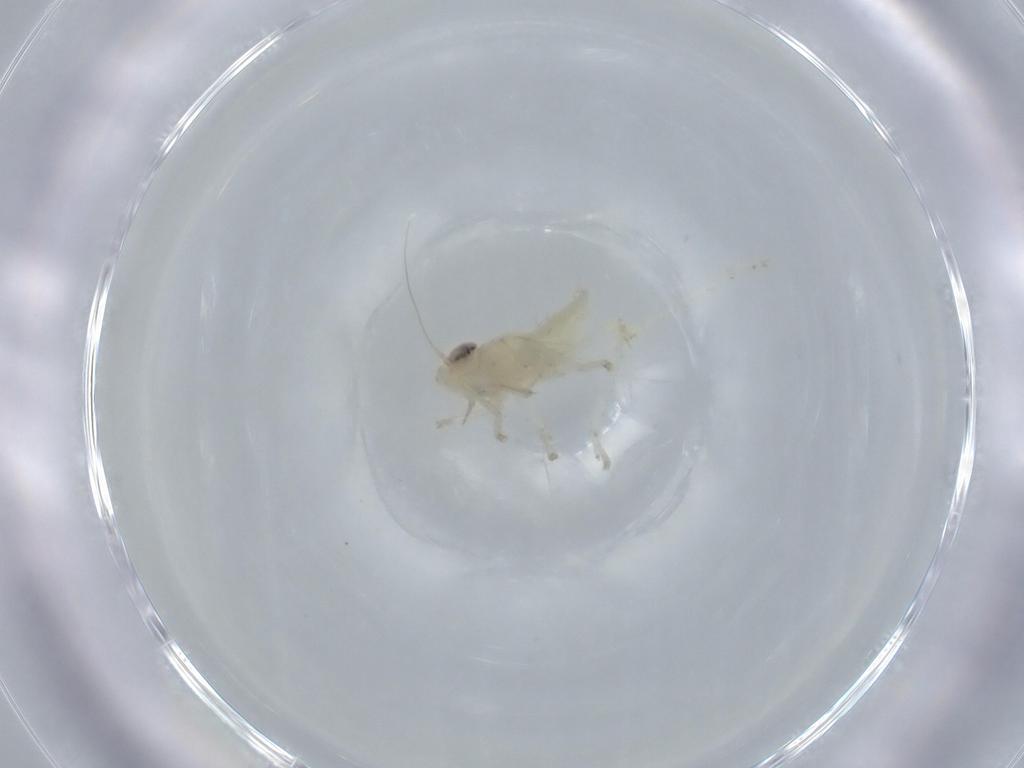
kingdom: Animalia
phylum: Arthropoda
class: Insecta
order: Hemiptera
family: Cicadellidae
